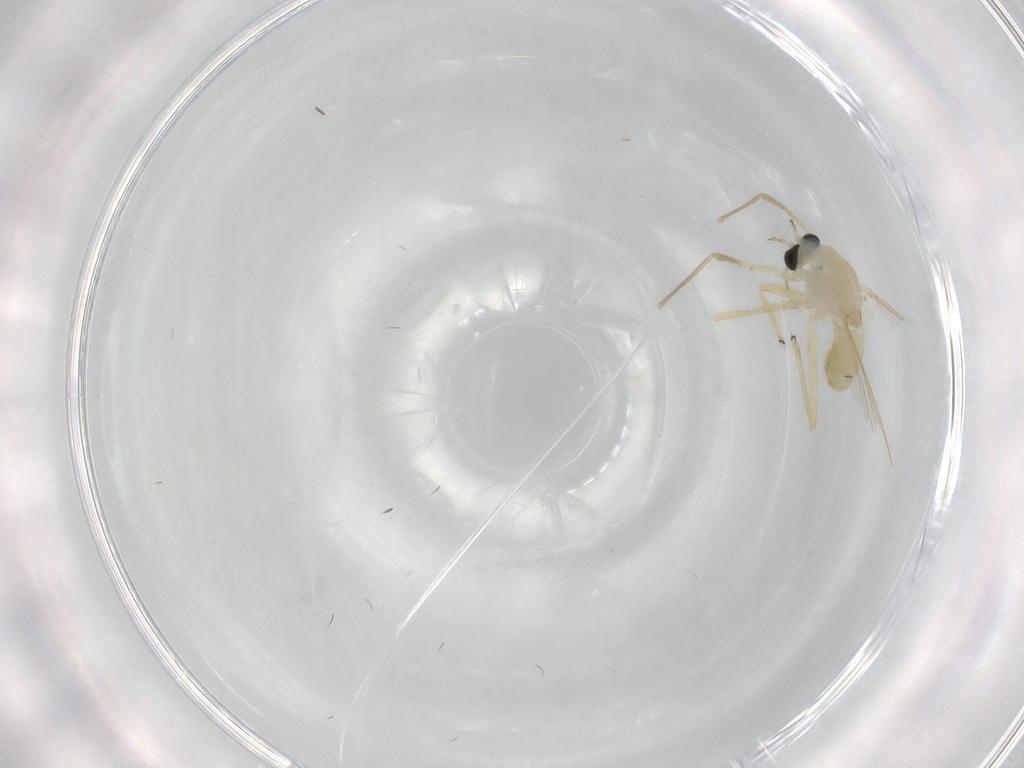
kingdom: Animalia
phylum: Arthropoda
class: Insecta
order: Diptera
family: Chironomidae
